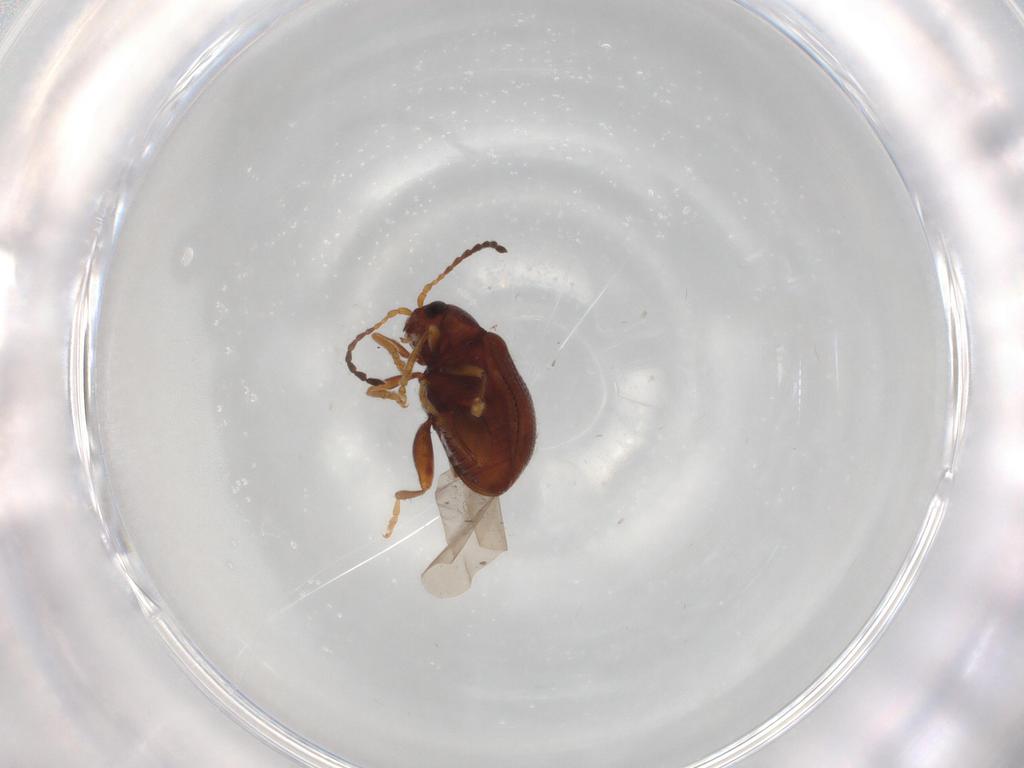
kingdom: Animalia
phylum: Arthropoda
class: Insecta
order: Coleoptera
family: Chrysomelidae
